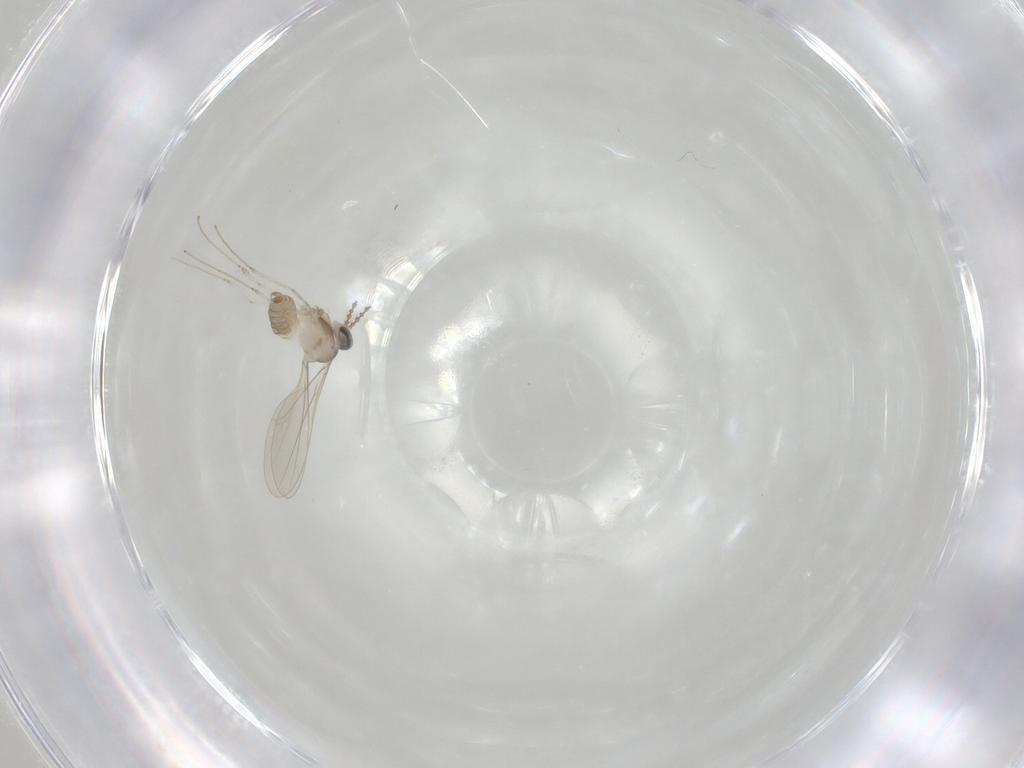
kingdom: Animalia
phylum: Arthropoda
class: Insecta
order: Diptera
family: Cecidomyiidae
